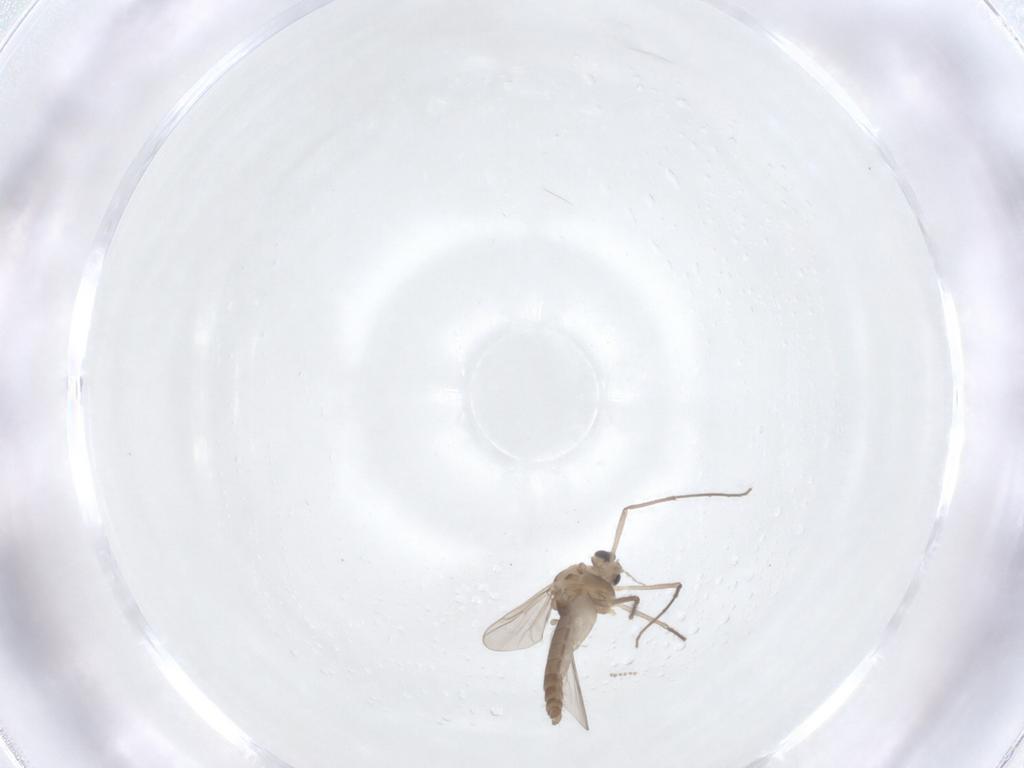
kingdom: Animalia
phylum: Arthropoda
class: Insecta
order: Diptera
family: Chironomidae
